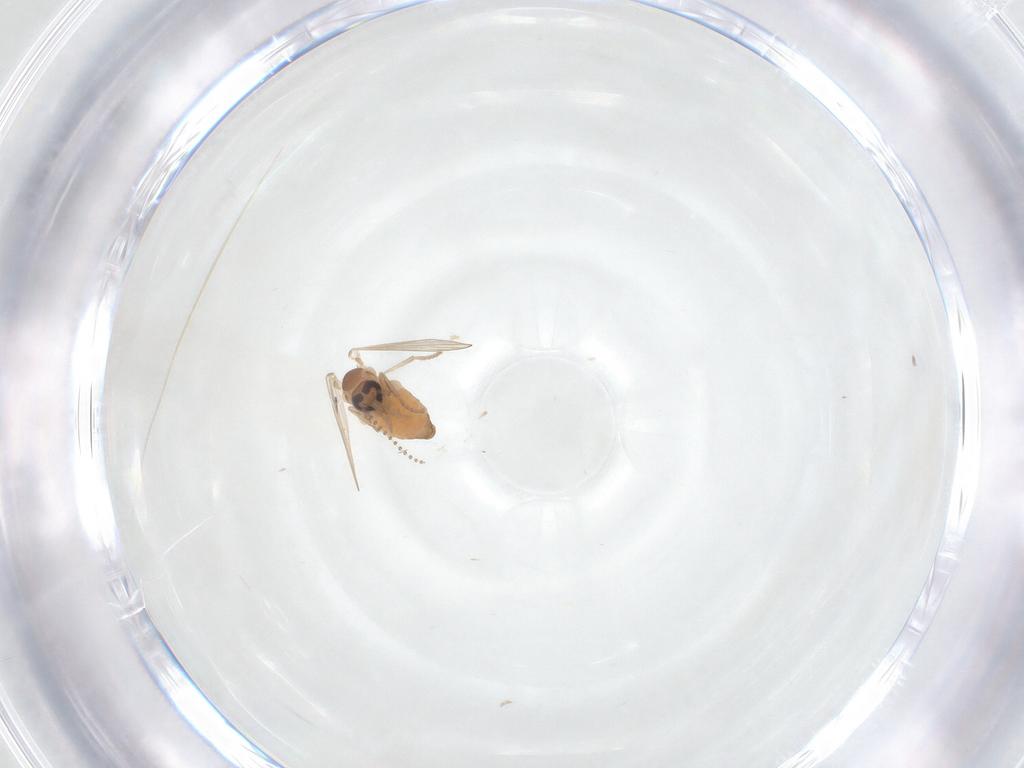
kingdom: Animalia
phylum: Arthropoda
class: Insecta
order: Diptera
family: Cecidomyiidae
